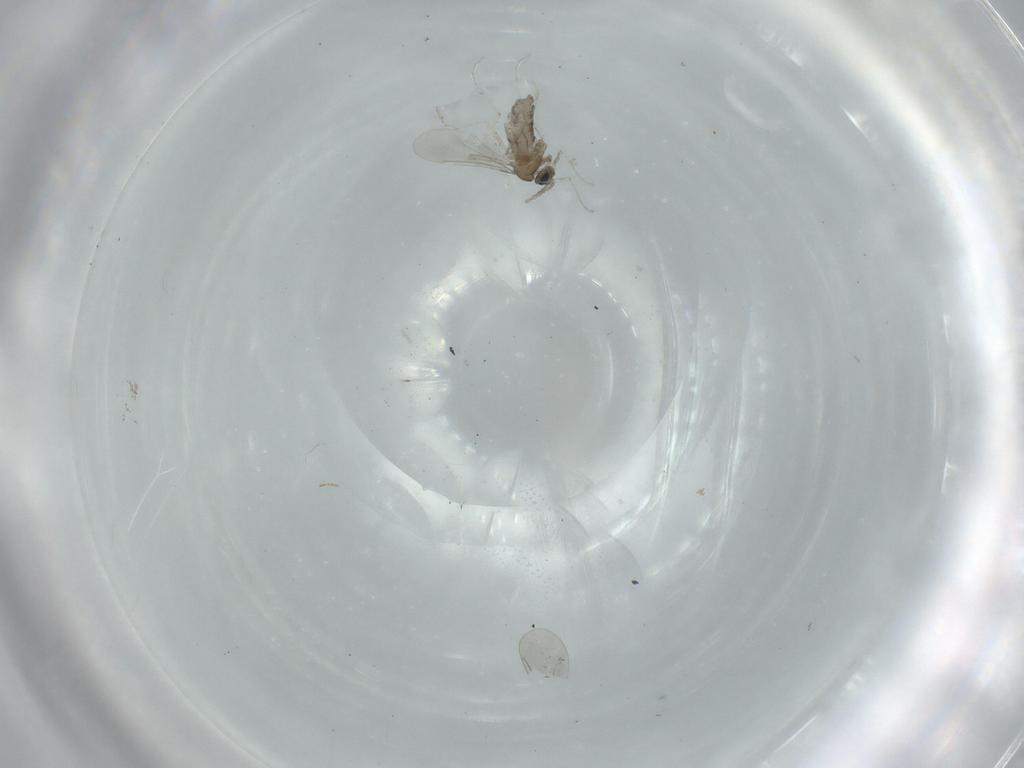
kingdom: Animalia
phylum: Arthropoda
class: Insecta
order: Diptera
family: Cecidomyiidae
